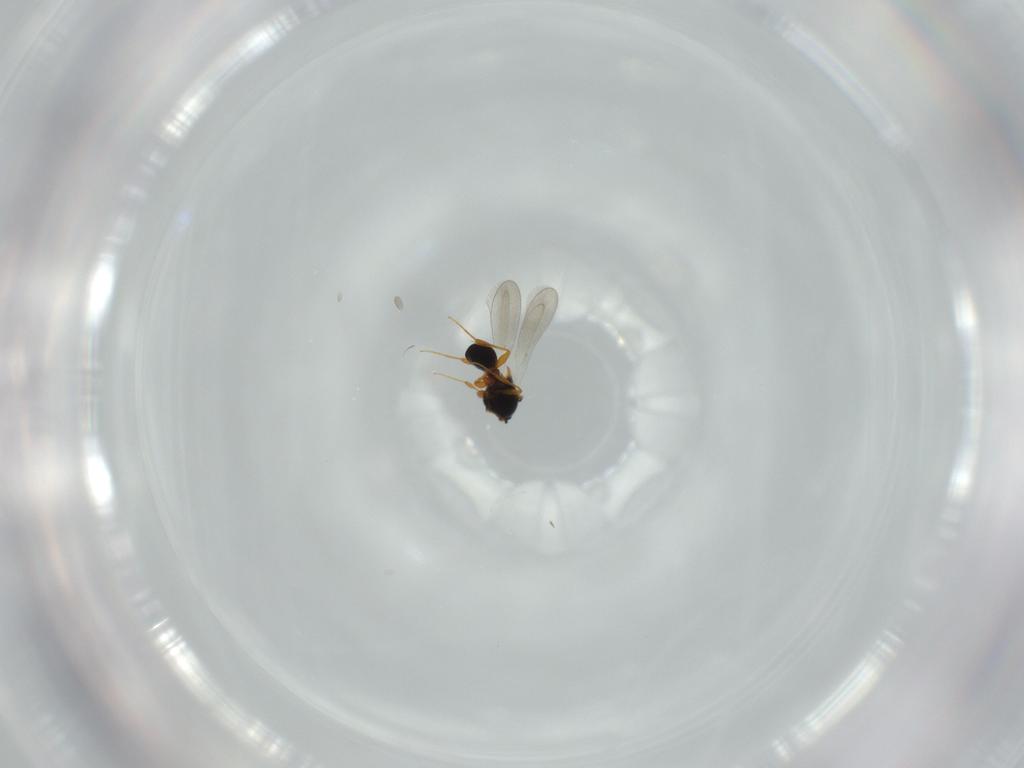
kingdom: Animalia
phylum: Arthropoda
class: Insecta
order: Hymenoptera
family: Platygastridae
